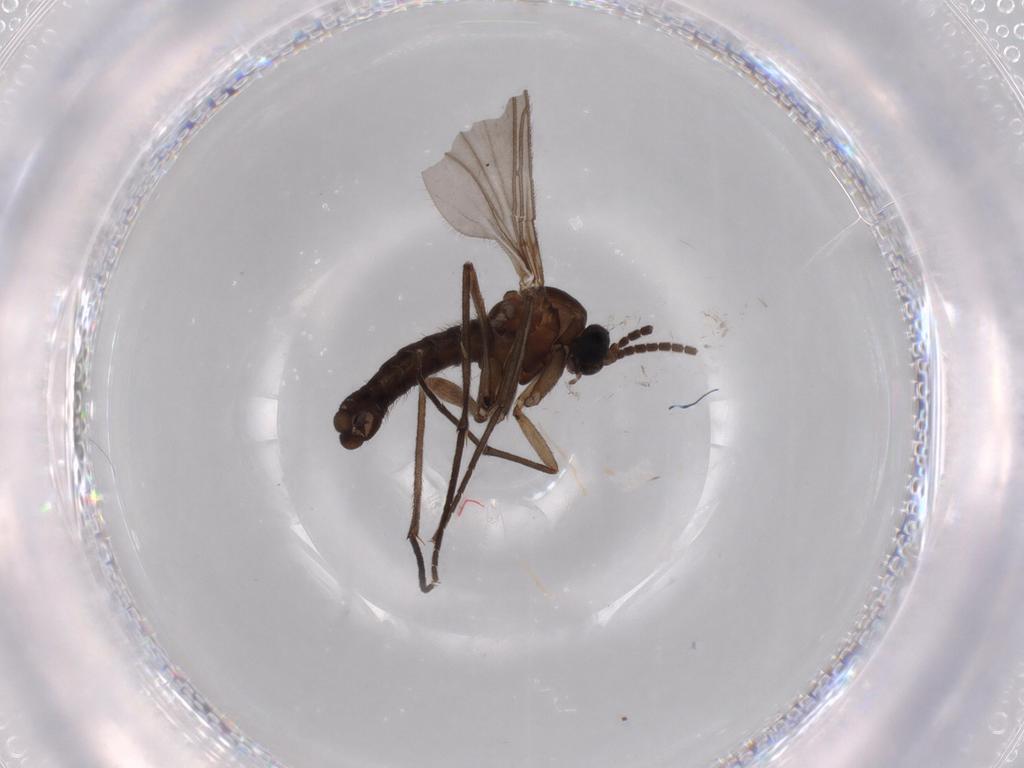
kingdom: Animalia
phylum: Arthropoda
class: Insecta
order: Diptera
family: Sciaridae
